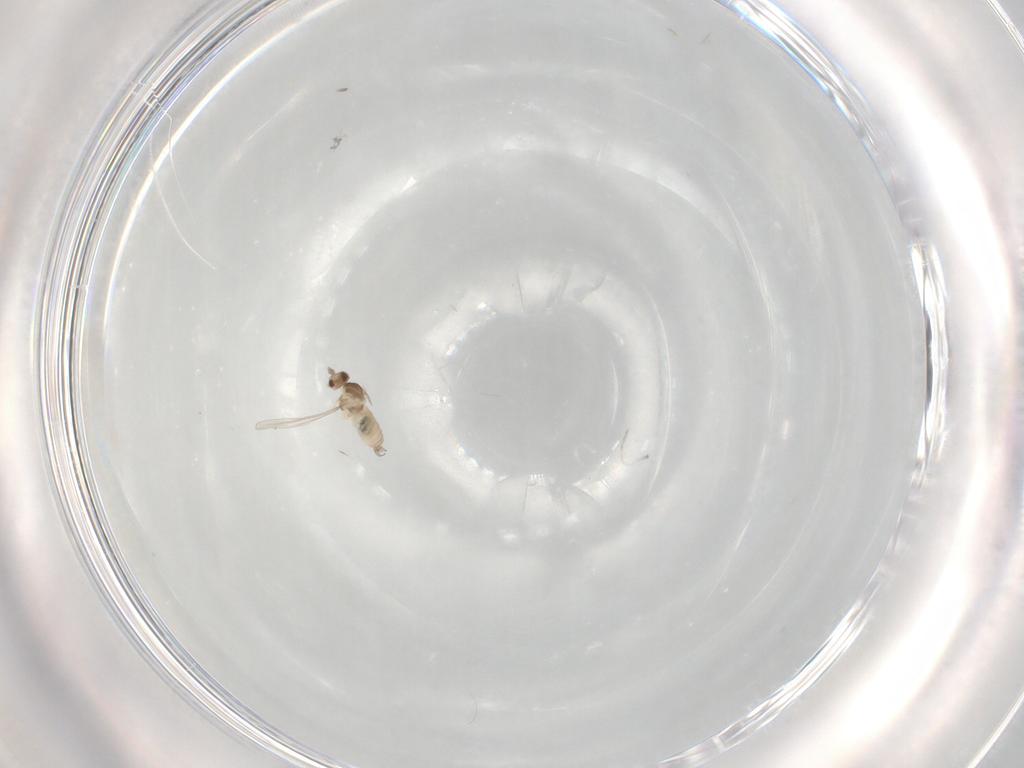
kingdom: Animalia
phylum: Arthropoda
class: Insecta
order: Diptera
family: Cecidomyiidae
